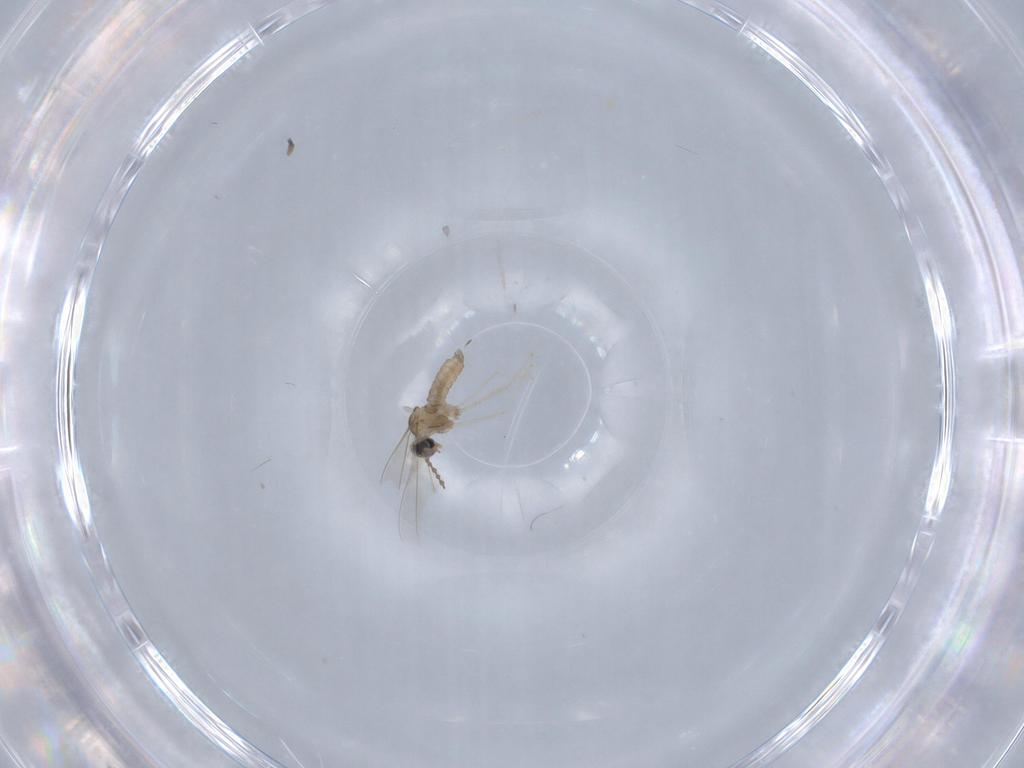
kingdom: Animalia
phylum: Arthropoda
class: Insecta
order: Diptera
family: Cecidomyiidae
